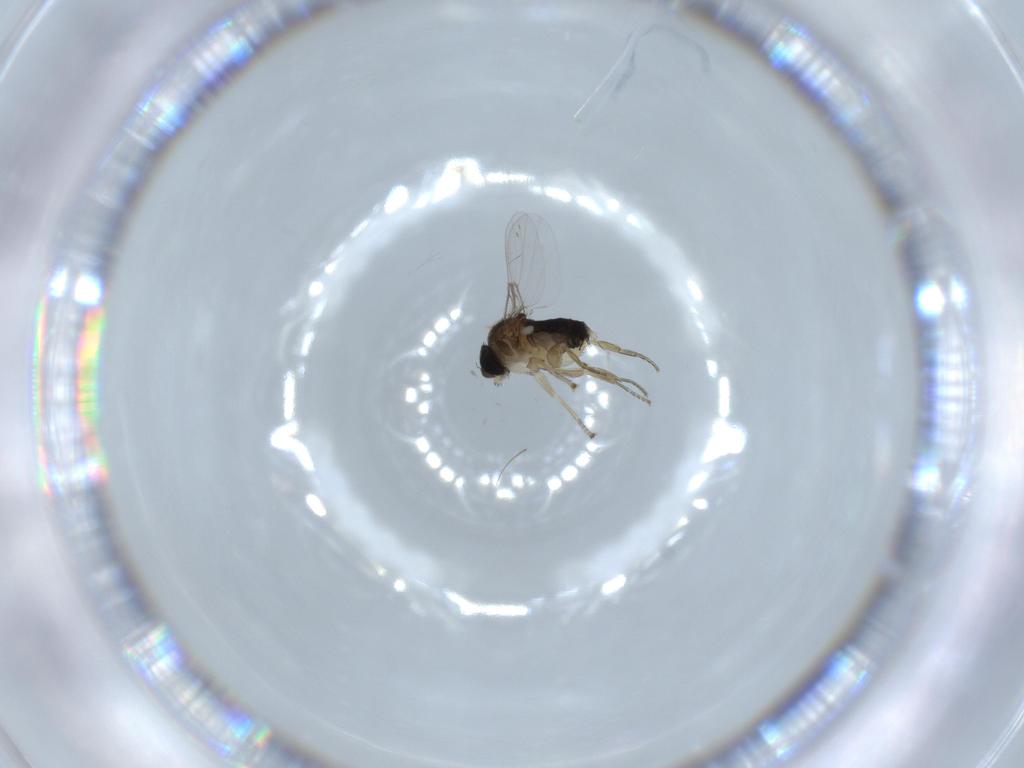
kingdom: Animalia
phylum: Arthropoda
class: Insecta
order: Diptera
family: Phoridae
